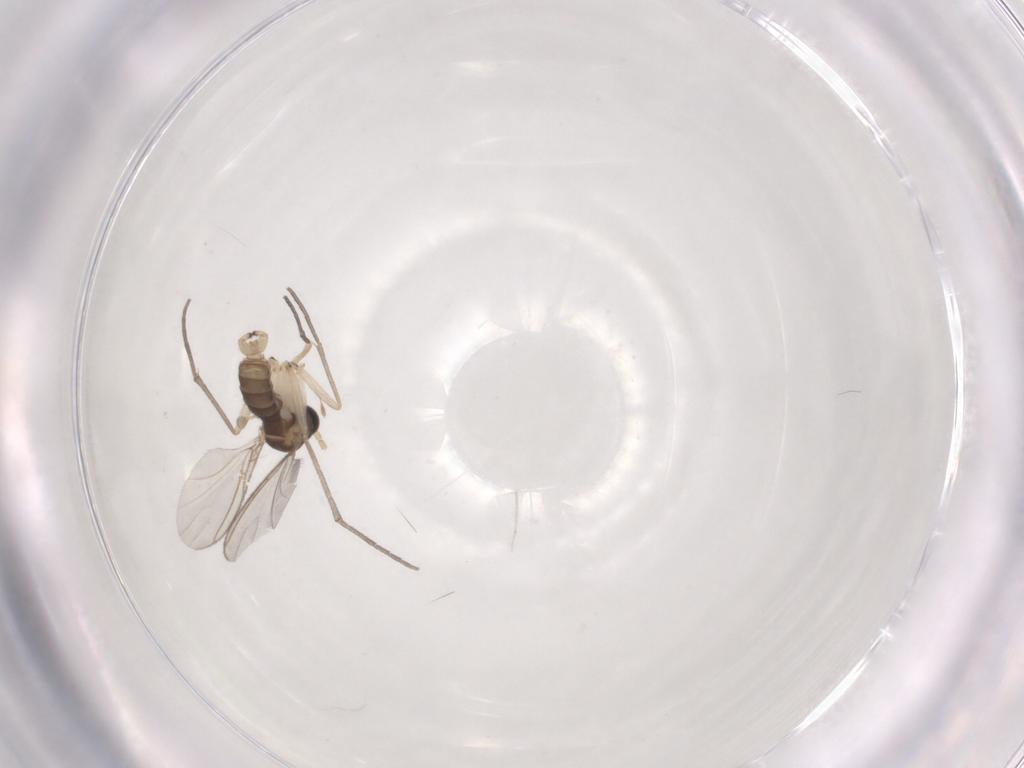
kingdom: Animalia
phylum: Arthropoda
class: Insecta
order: Diptera
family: Sciaridae
